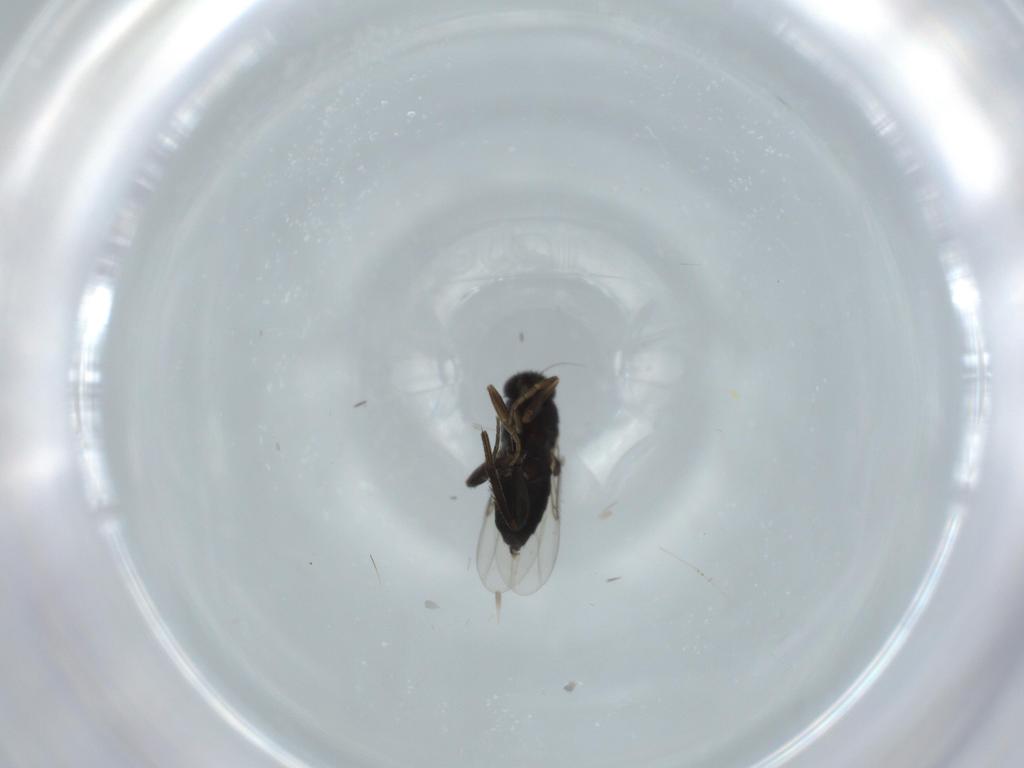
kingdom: Animalia
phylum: Arthropoda
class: Insecta
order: Diptera
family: Phoridae
